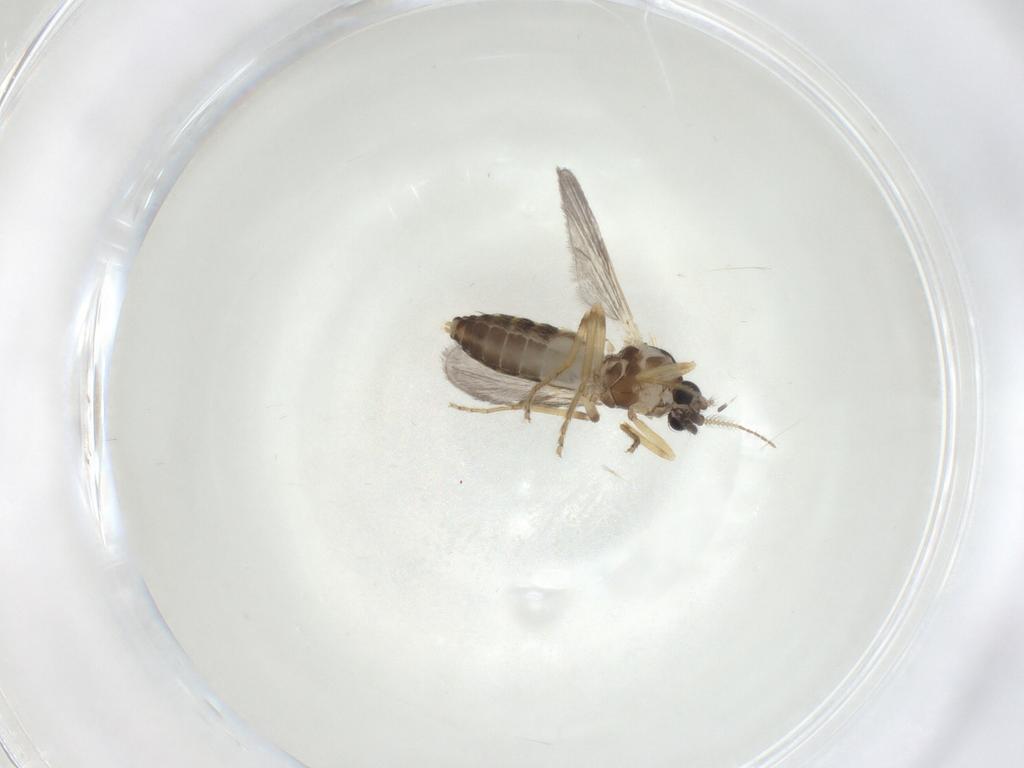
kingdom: Animalia
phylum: Arthropoda
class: Insecta
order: Diptera
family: Ceratopogonidae
